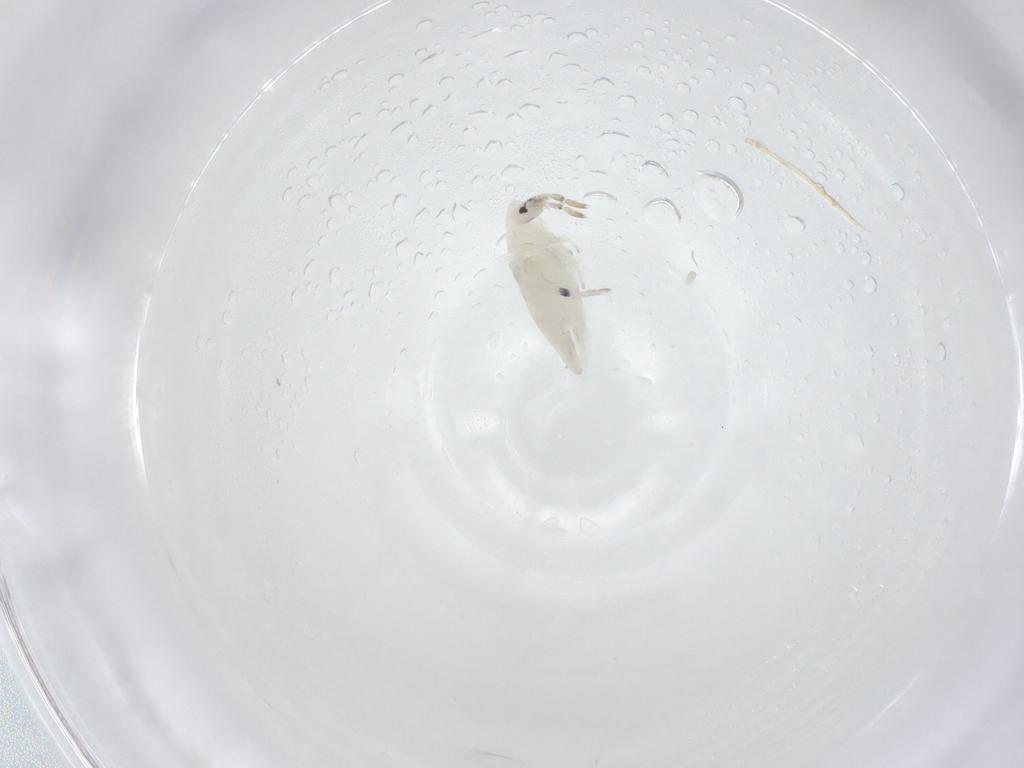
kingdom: Animalia
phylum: Arthropoda
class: Collembola
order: Entomobryomorpha
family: Entomobryidae
